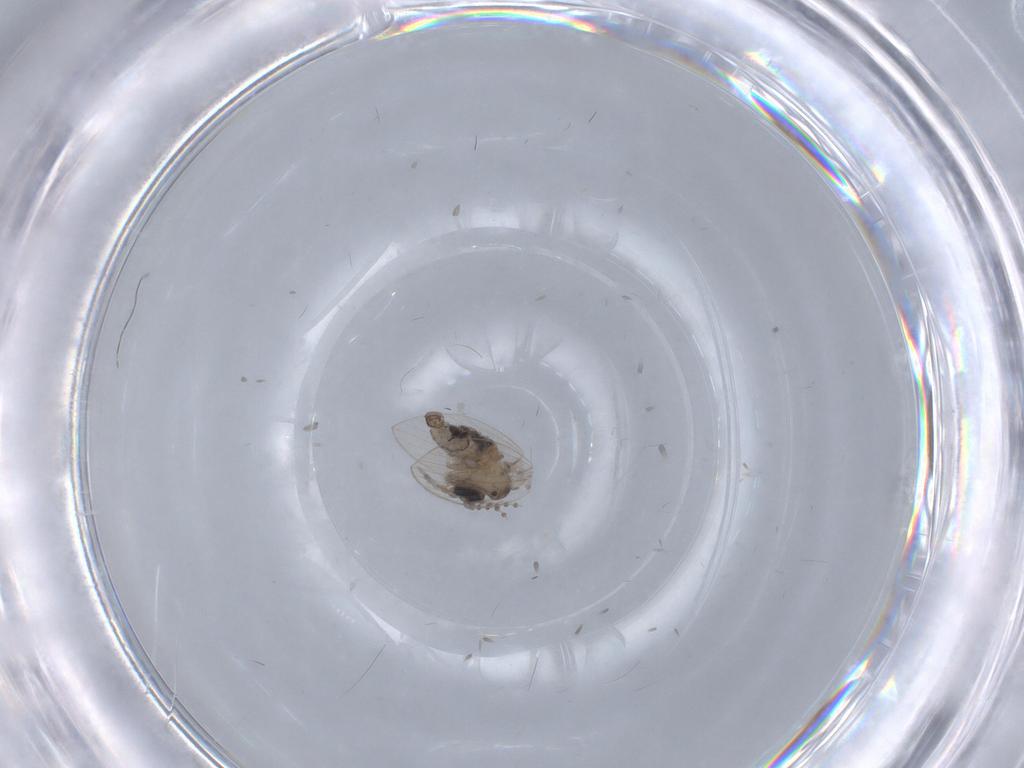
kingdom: Animalia
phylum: Arthropoda
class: Insecta
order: Diptera
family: Psychodidae
